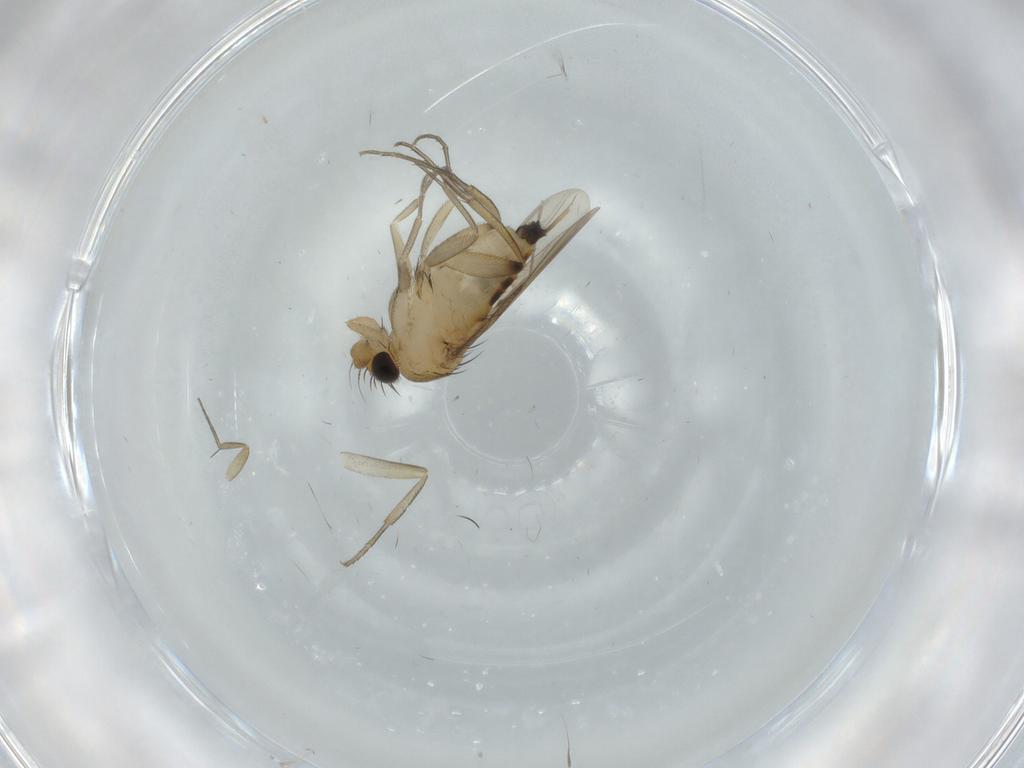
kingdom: Animalia
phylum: Arthropoda
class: Insecta
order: Diptera
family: Phoridae
